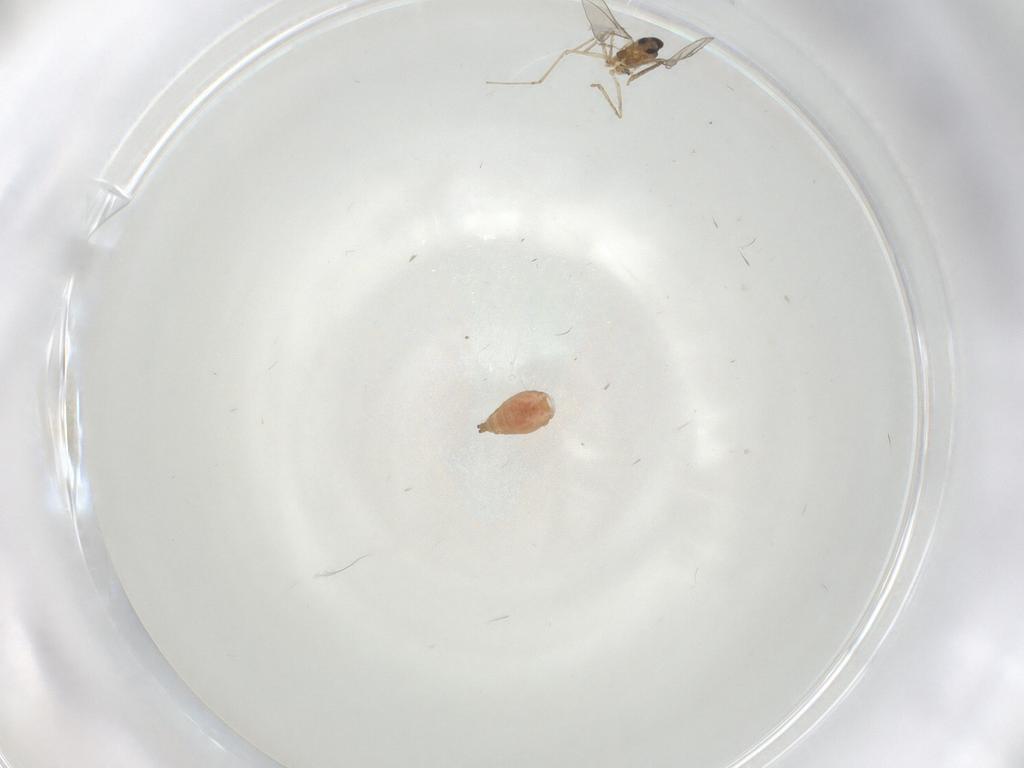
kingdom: Animalia
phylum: Arthropoda
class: Insecta
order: Diptera
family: Cecidomyiidae
